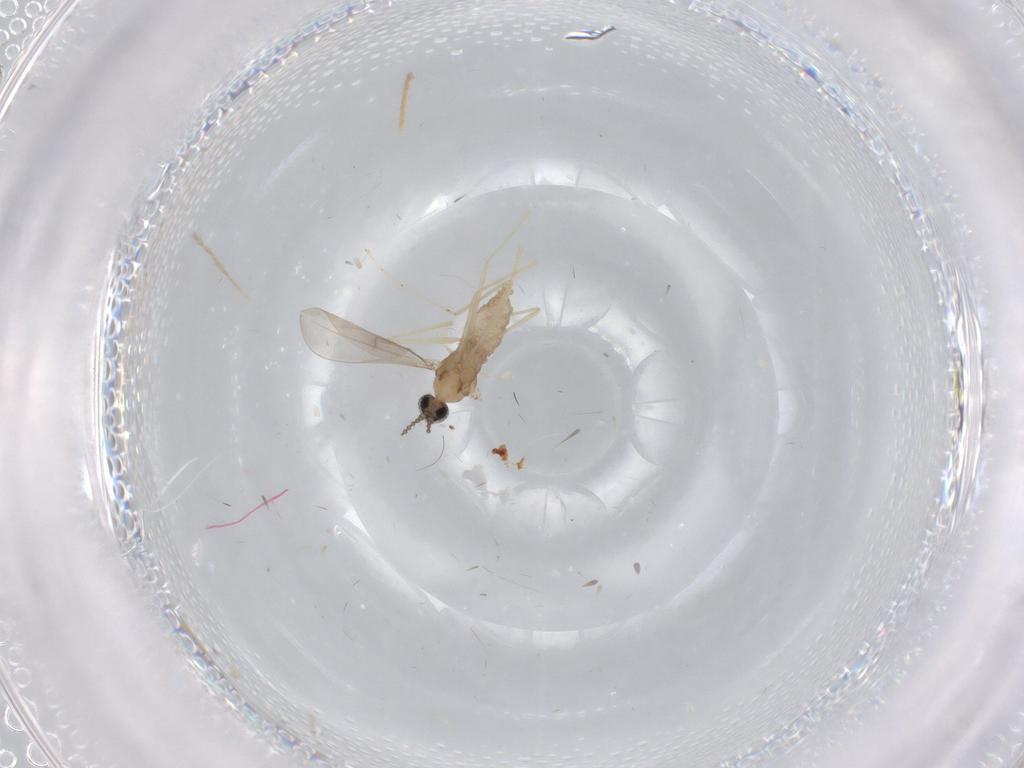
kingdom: Animalia
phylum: Arthropoda
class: Insecta
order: Diptera
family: Cecidomyiidae
